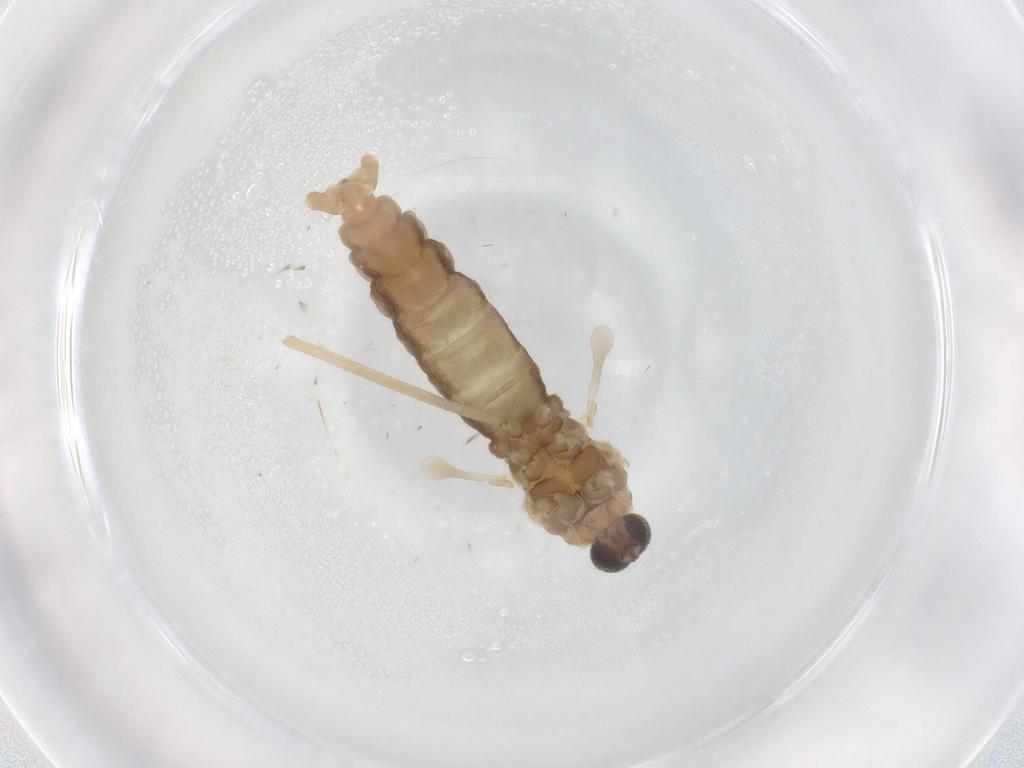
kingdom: Animalia
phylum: Arthropoda
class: Insecta
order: Diptera
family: Cecidomyiidae
